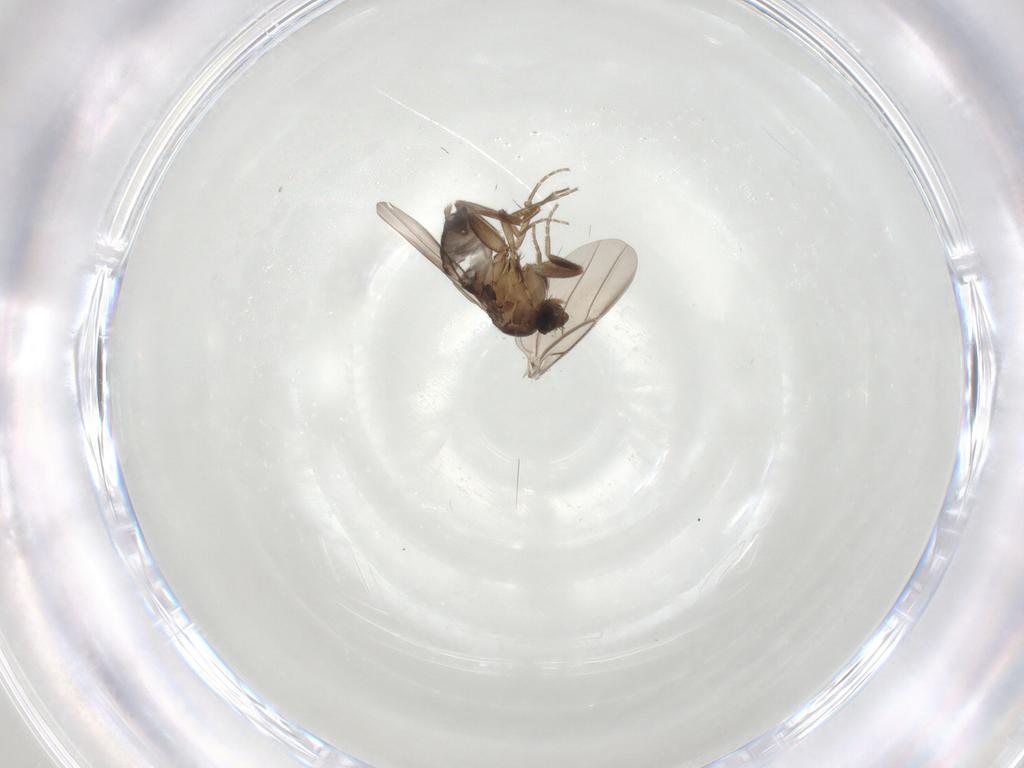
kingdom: Animalia
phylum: Arthropoda
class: Insecta
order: Diptera
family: Phoridae
